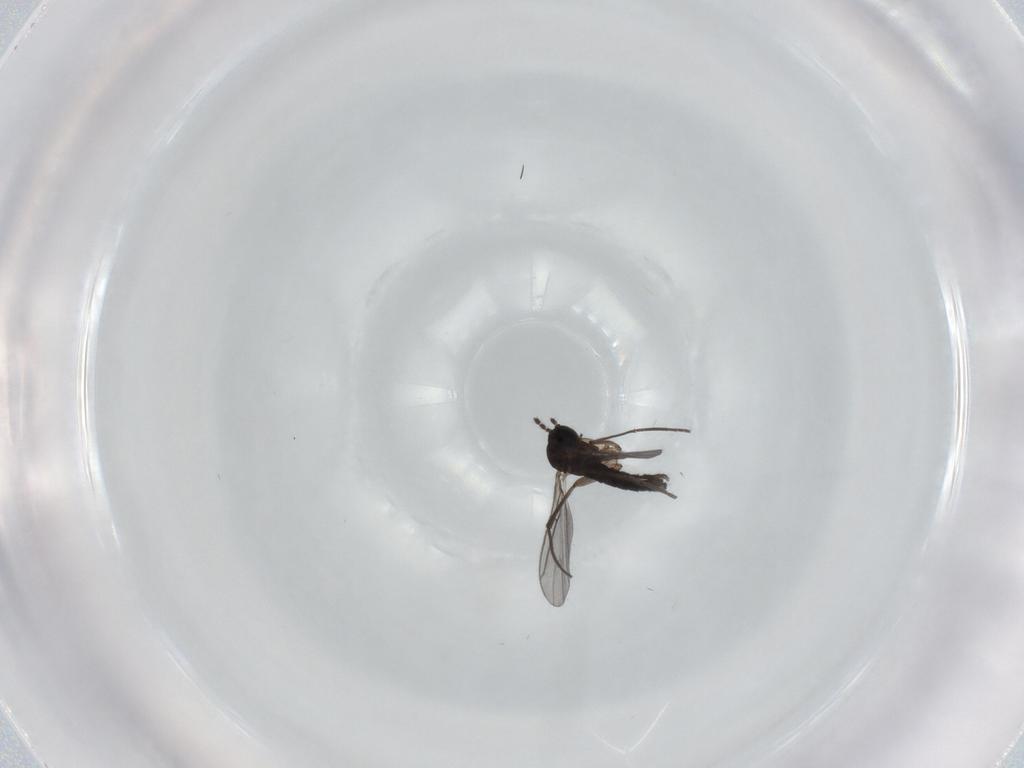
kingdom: Animalia
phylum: Arthropoda
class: Insecta
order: Diptera
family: Sciaridae
